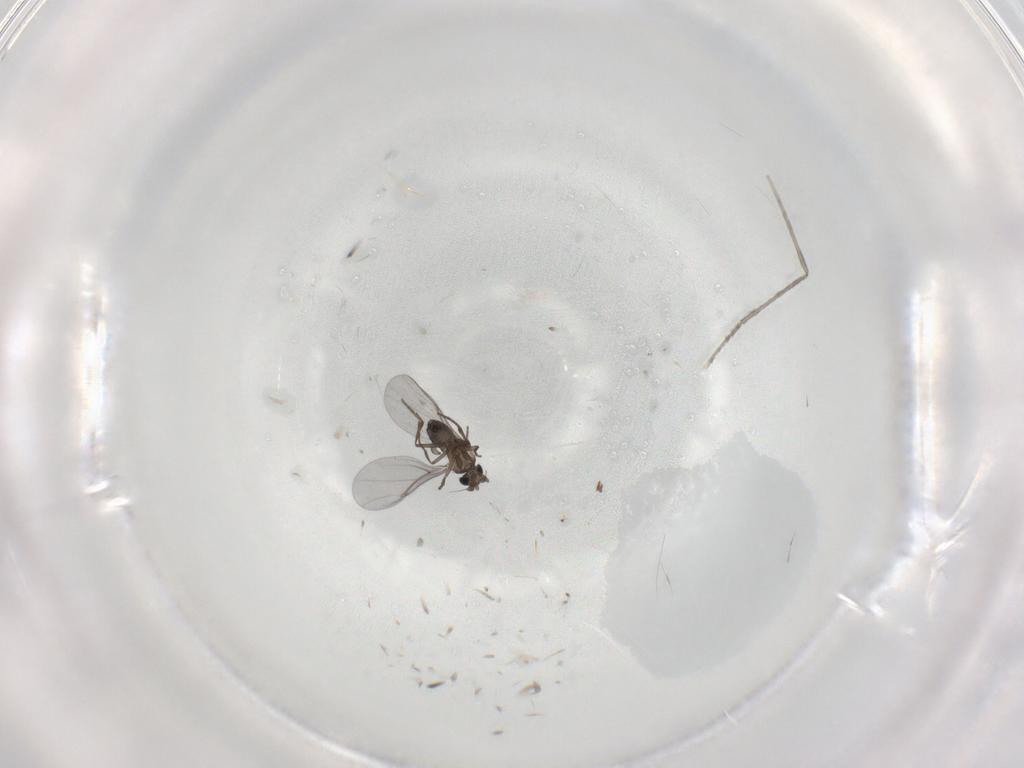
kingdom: Animalia
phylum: Arthropoda
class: Insecta
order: Diptera
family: Cecidomyiidae
